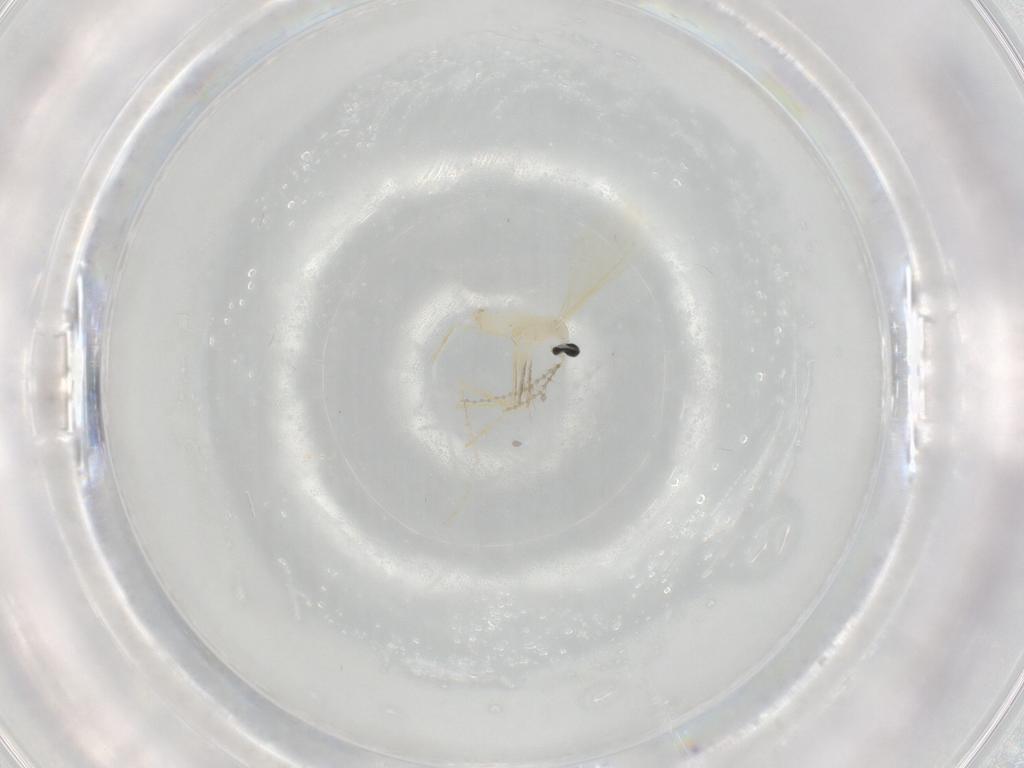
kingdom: Animalia
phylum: Arthropoda
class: Insecta
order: Diptera
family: Cecidomyiidae
